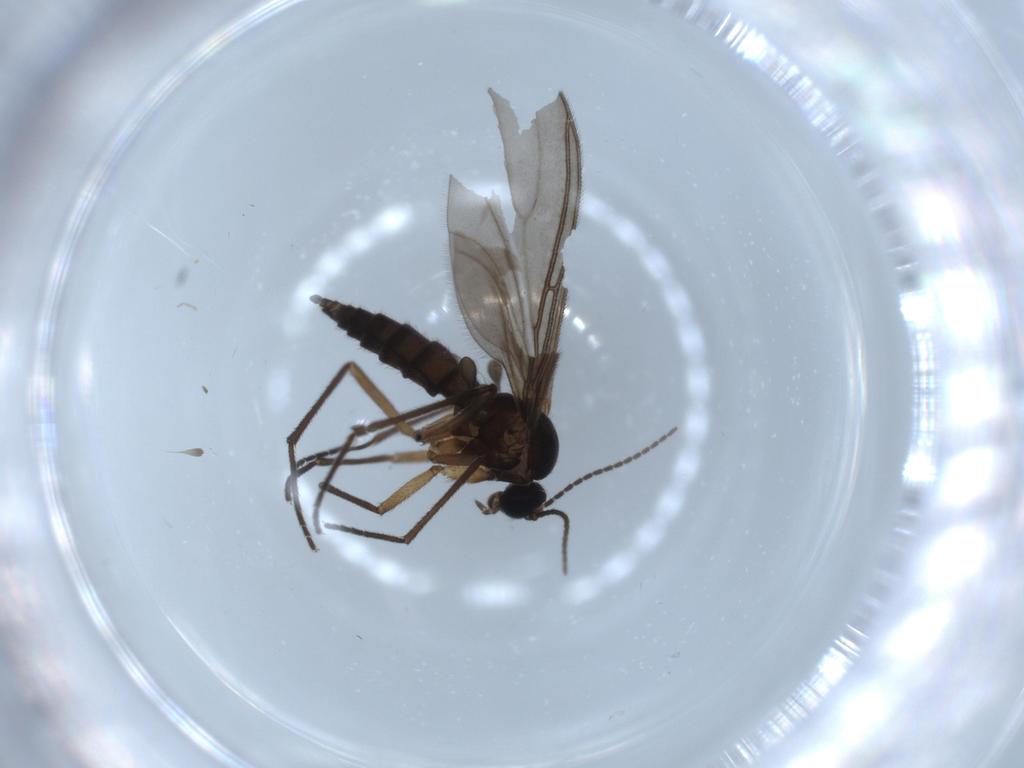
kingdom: Animalia
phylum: Arthropoda
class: Insecta
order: Diptera
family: Sciaridae
